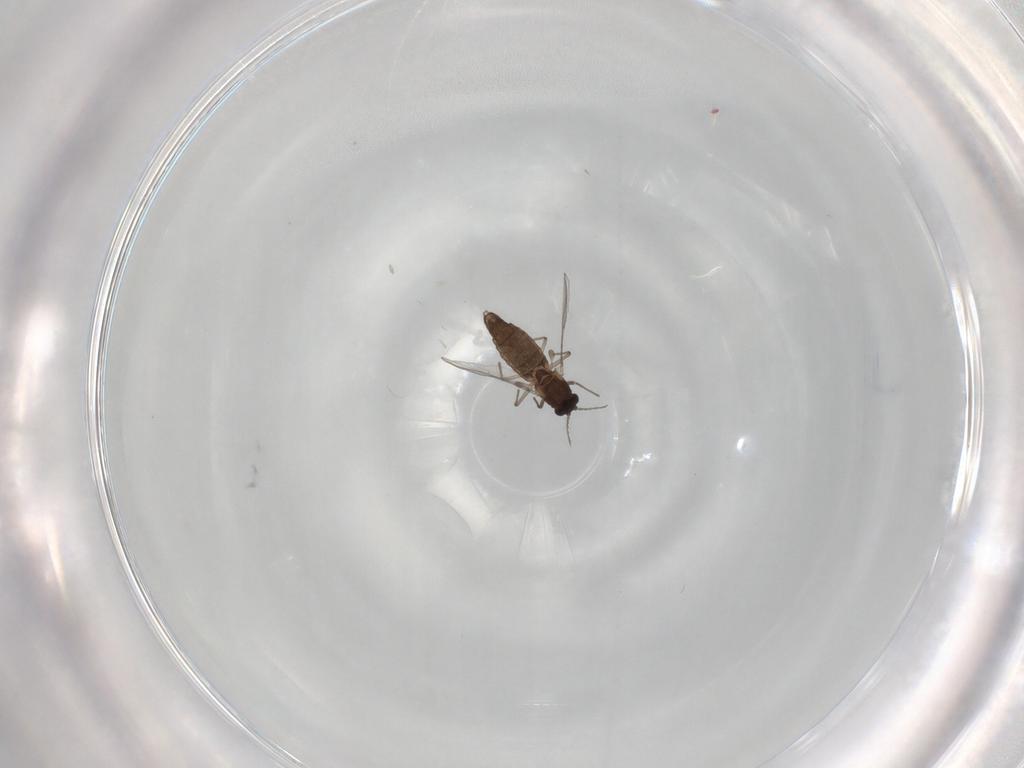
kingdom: Animalia
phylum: Arthropoda
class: Insecta
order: Diptera
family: Chironomidae
